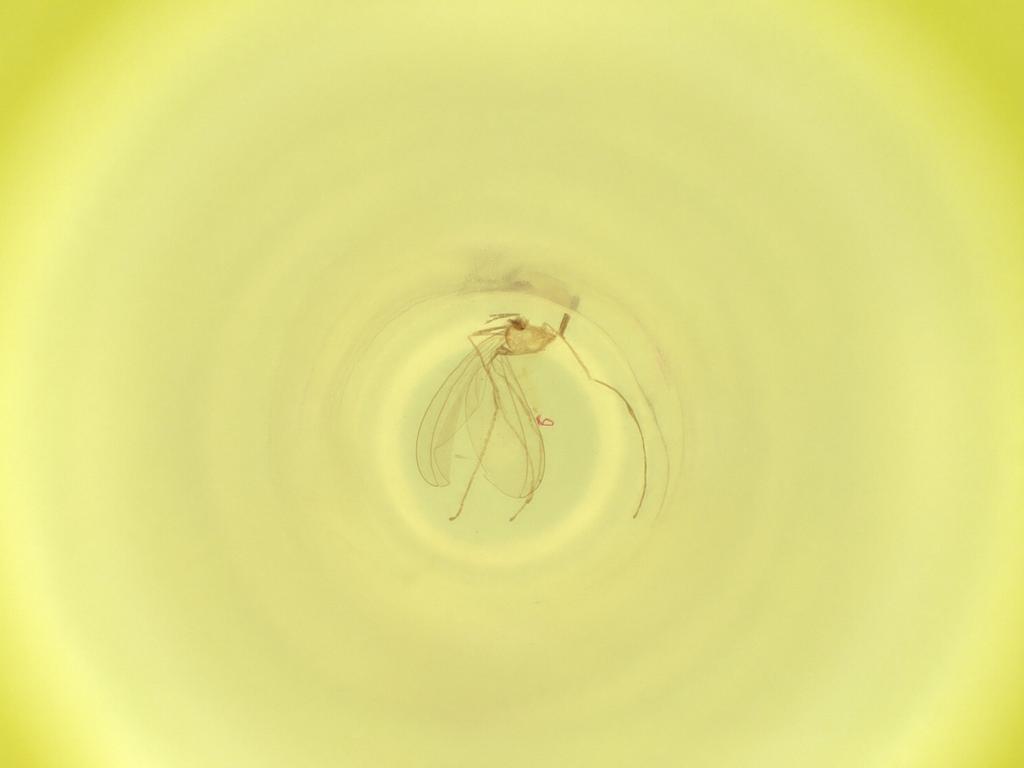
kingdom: Animalia
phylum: Arthropoda
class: Insecta
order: Diptera
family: Cecidomyiidae
